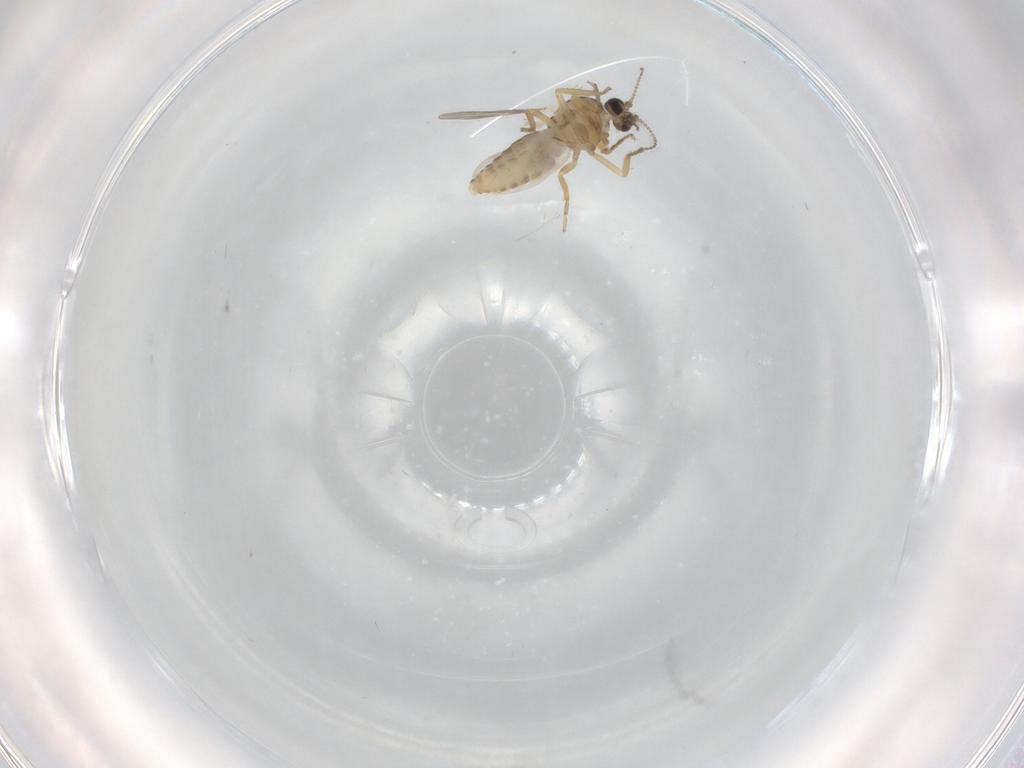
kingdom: Animalia
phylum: Arthropoda
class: Insecta
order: Diptera
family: Ceratopogonidae
